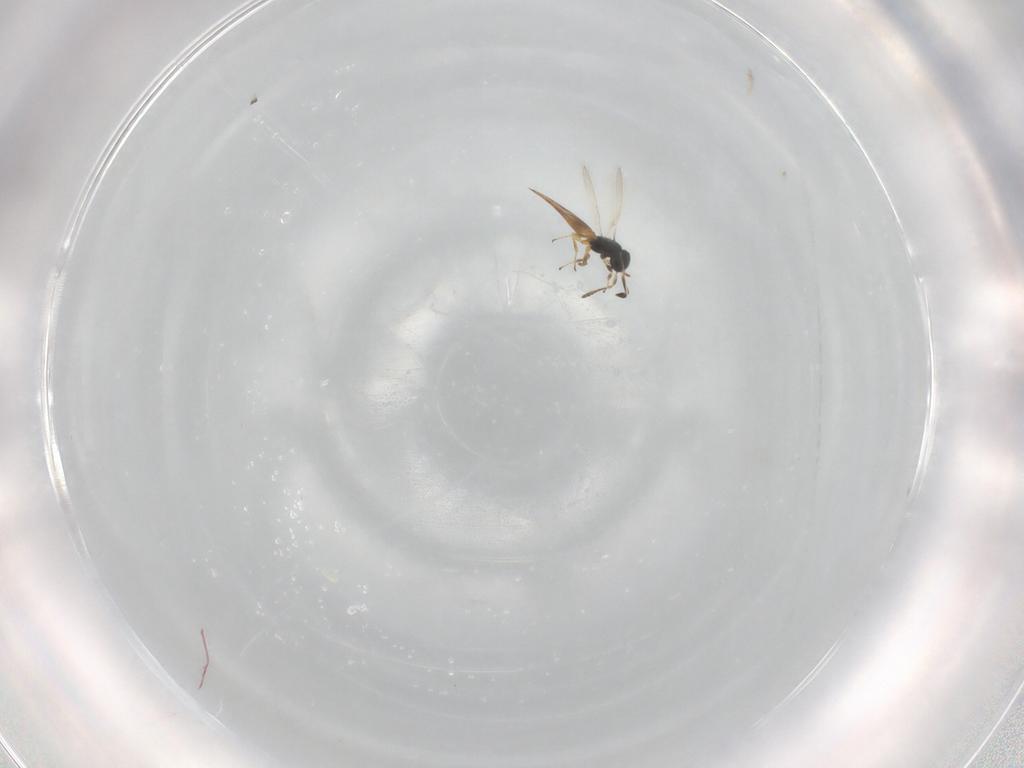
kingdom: Animalia
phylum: Arthropoda
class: Insecta
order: Hymenoptera
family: Platygastridae
